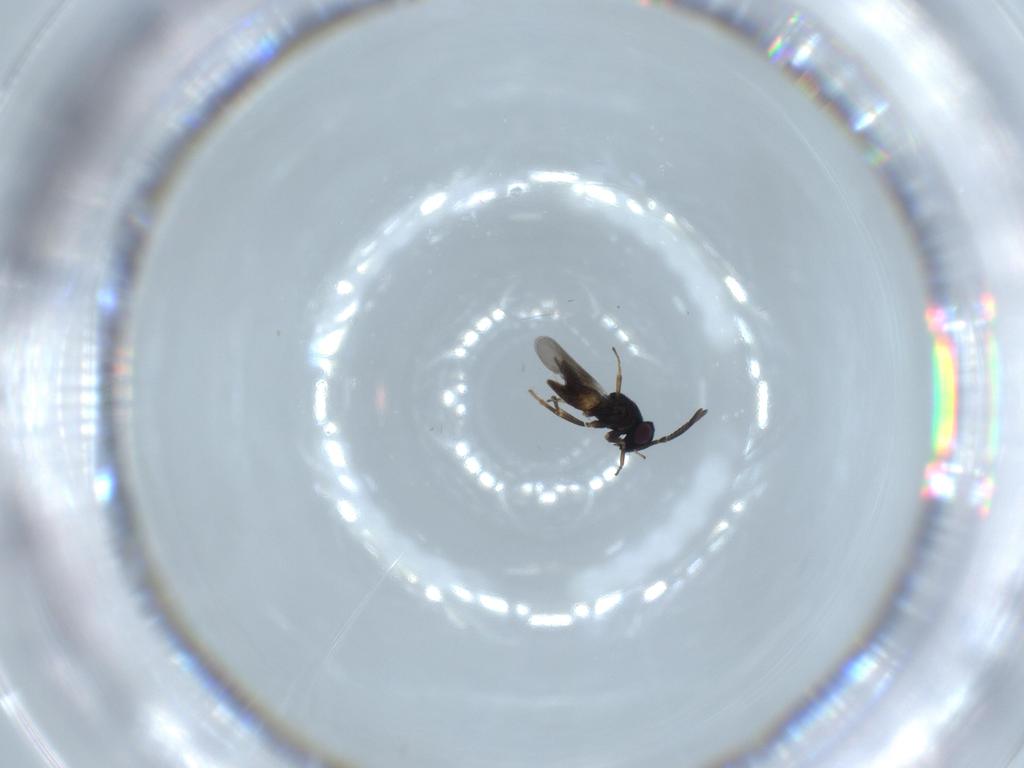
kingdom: Animalia
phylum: Arthropoda
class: Insecta
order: Hymenoptera
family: Encyrtidae
